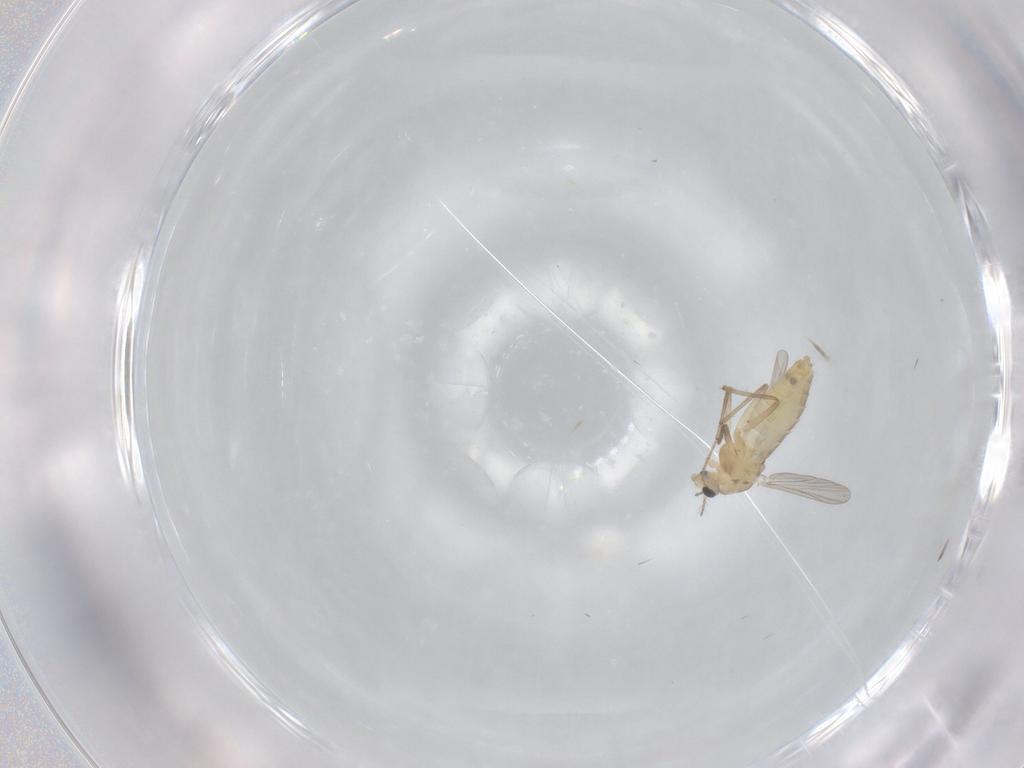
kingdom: Animalia
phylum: Arthropoda
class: Insecta
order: Diptera
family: Chironomidae
